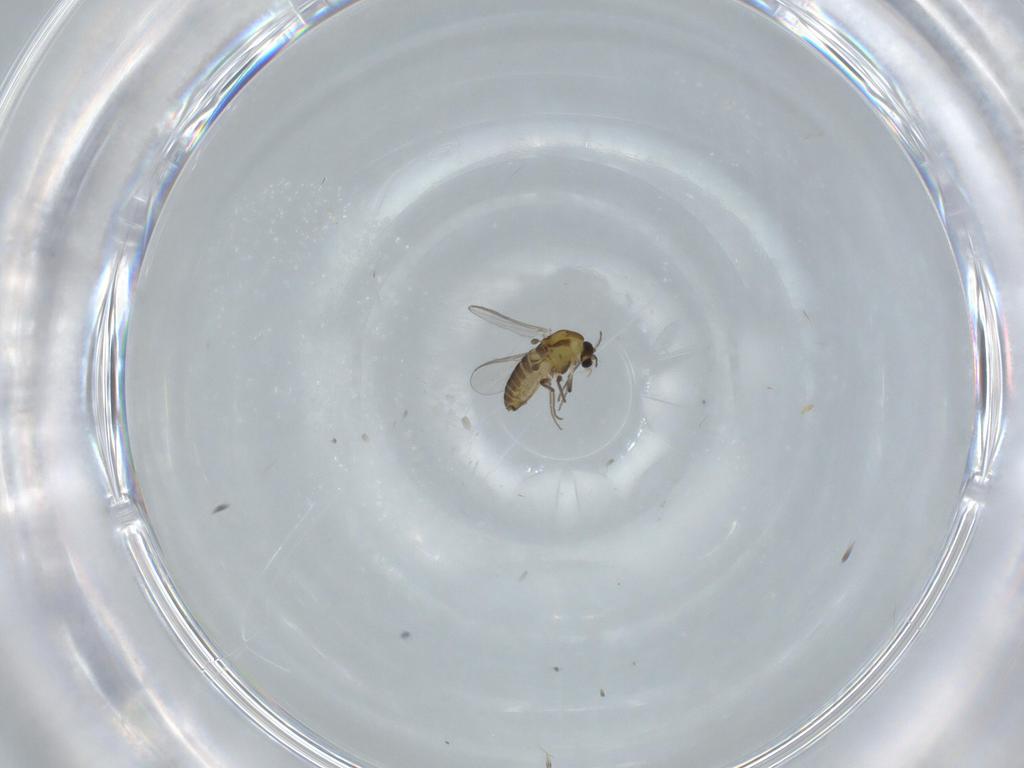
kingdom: Animalia
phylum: Arthropoda
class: Insecta
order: Diptera
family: Chironomidae
